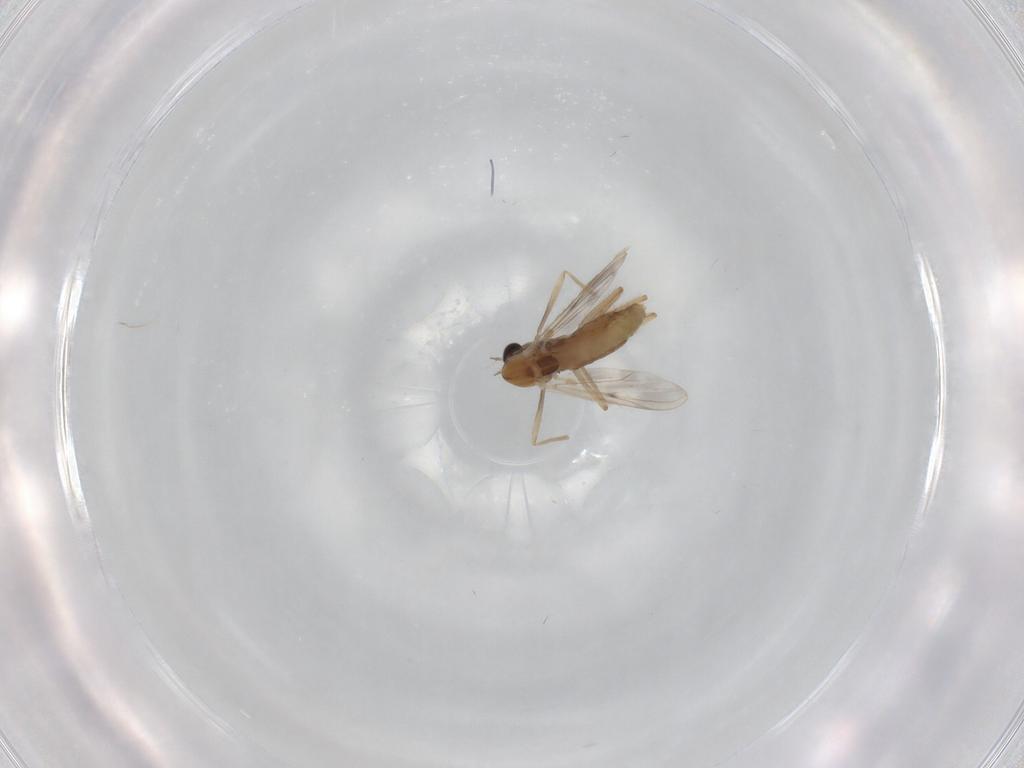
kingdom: Animalia
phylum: Arthropoda
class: Insecta
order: Diptera
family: Chironomidae
